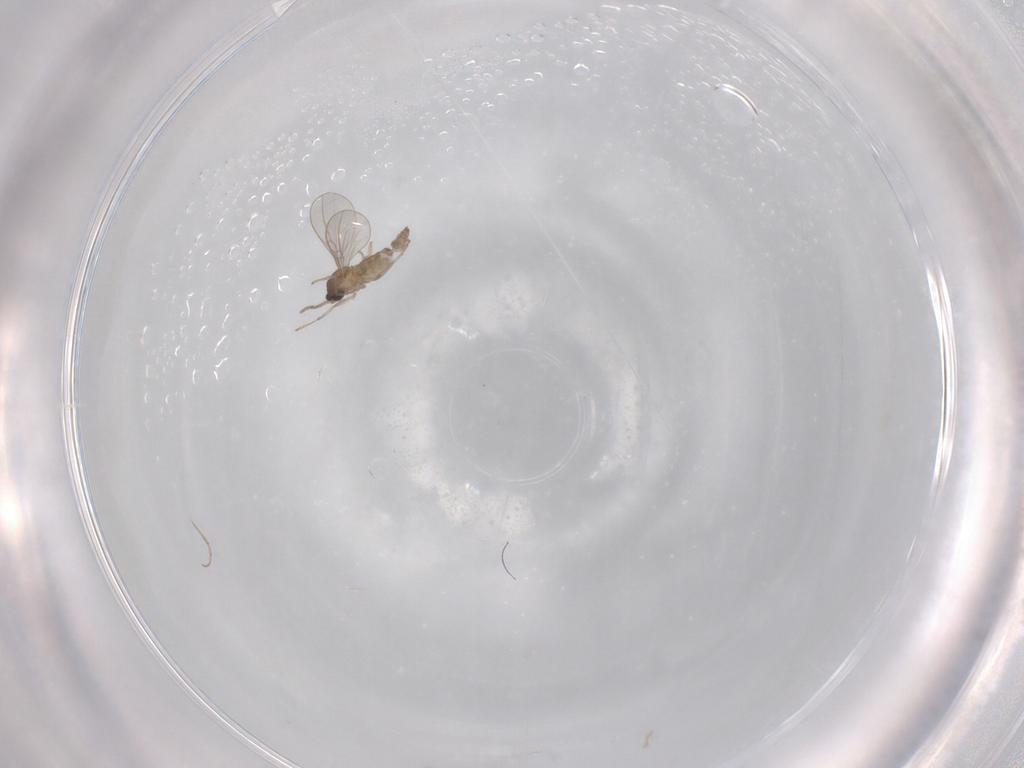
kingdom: Animalia
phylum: Arthropoda
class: Insecta
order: Diptera
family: Cecidomyiidae
